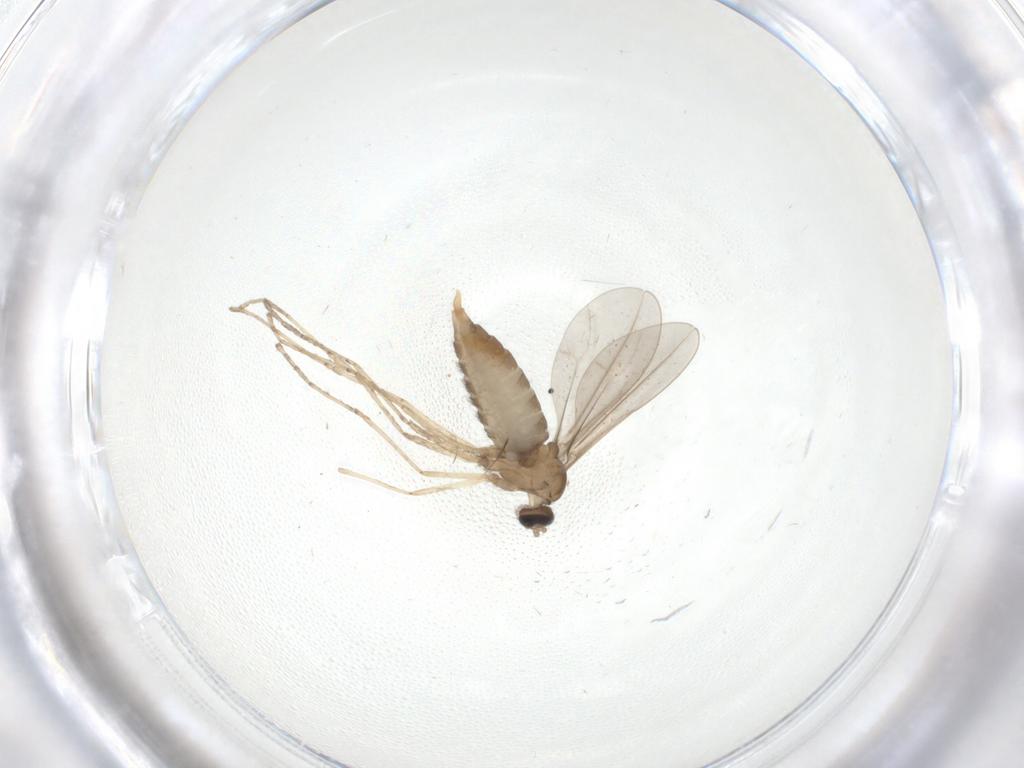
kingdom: Animalia
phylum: Arthropoda
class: Insecta
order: Diptera
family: Cecidomyiidae
